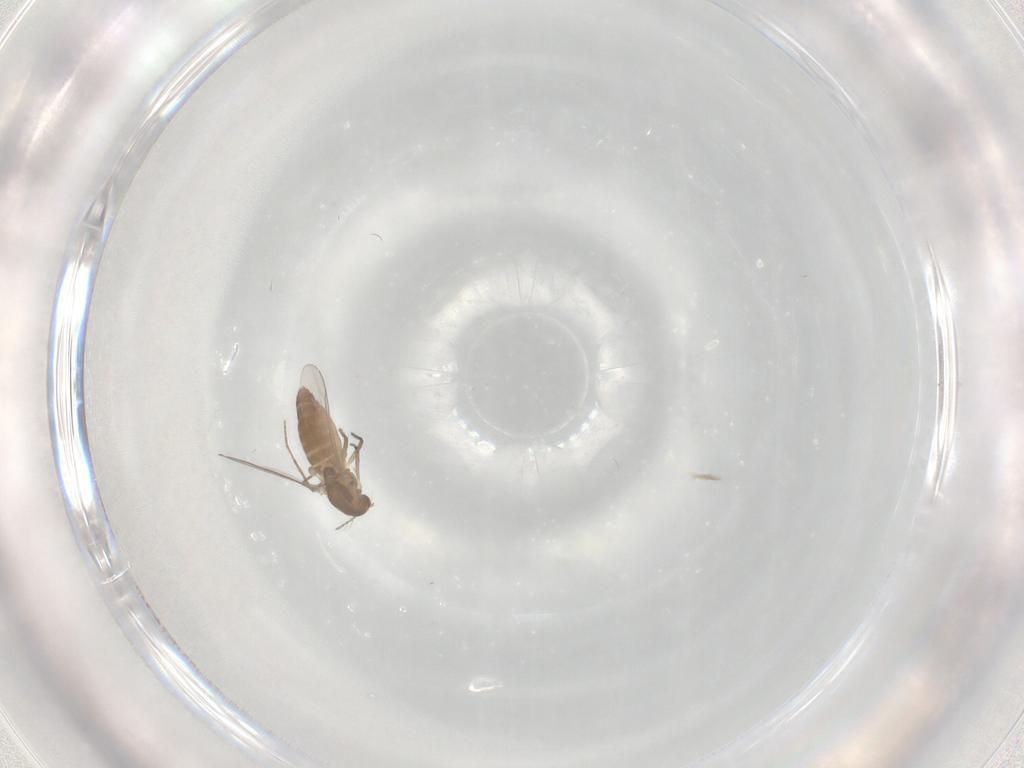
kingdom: Animalia
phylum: Arthropoda
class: Insecta
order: Diptera
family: Chironomidae
